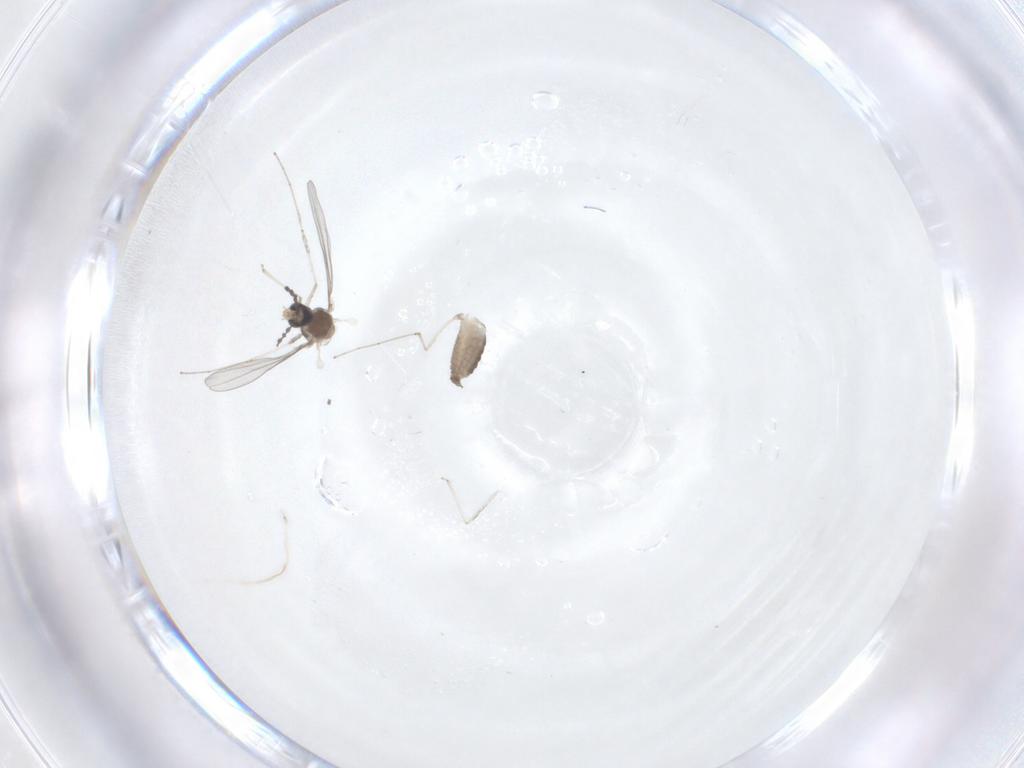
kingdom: Animalia
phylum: Arthropoda
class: Insecta
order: Diptera
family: Cecidomyiidae
